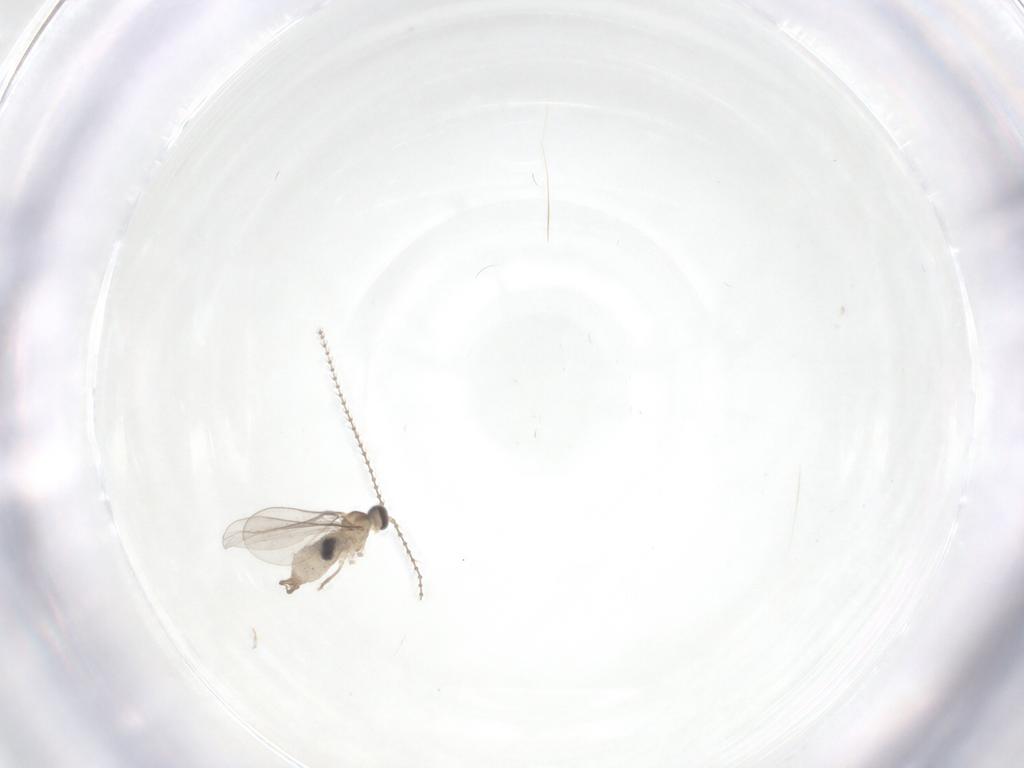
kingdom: Animalia
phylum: Arthropoda
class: Insecta
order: Diptera
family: Cecidomyiidae
